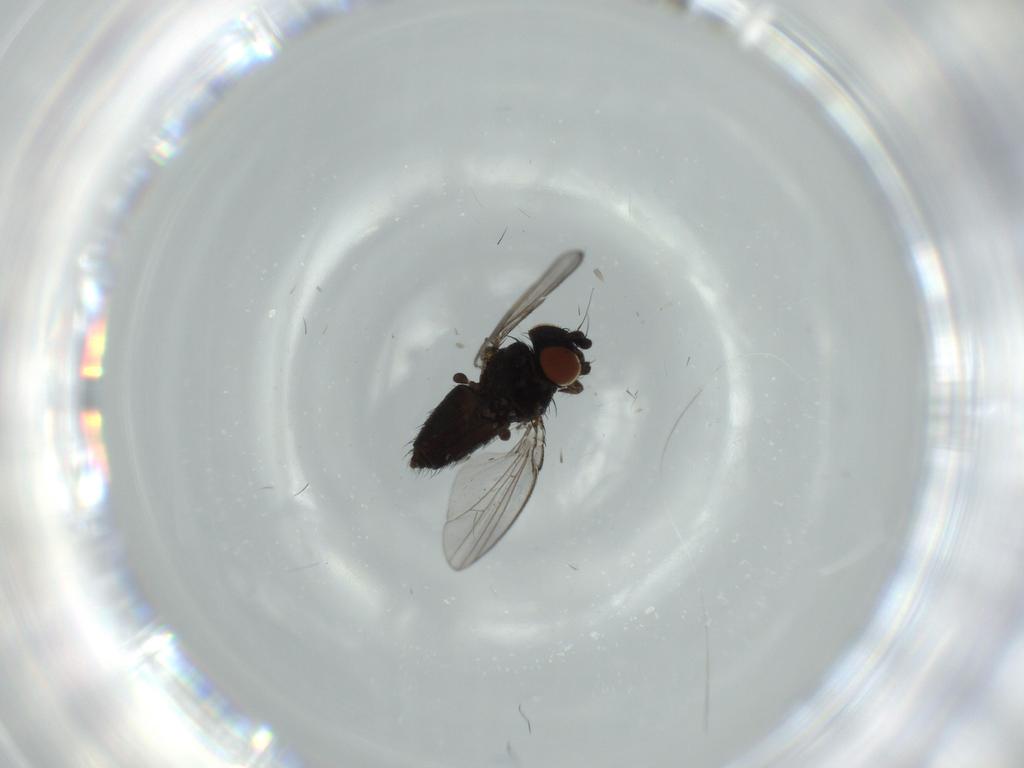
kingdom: Animalia
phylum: Arthropoda
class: Insecta
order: Diptera
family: Milichiidae
